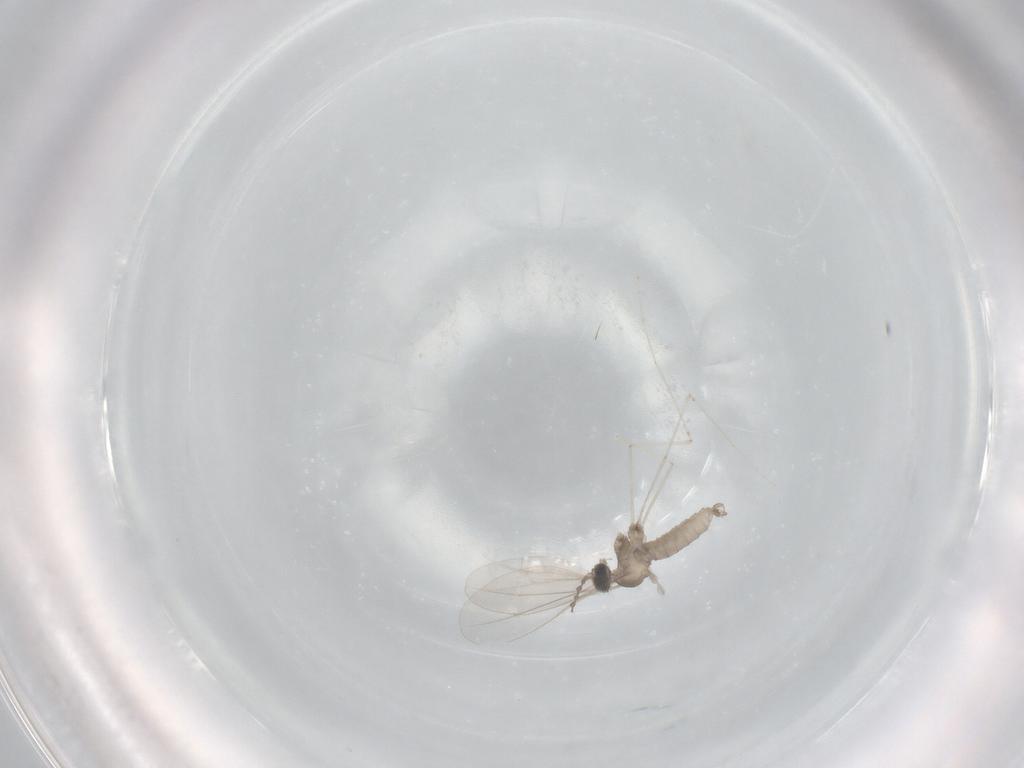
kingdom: Animalia
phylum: Arthropoda
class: Insecta
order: Diptera
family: Cecidomyiidae
